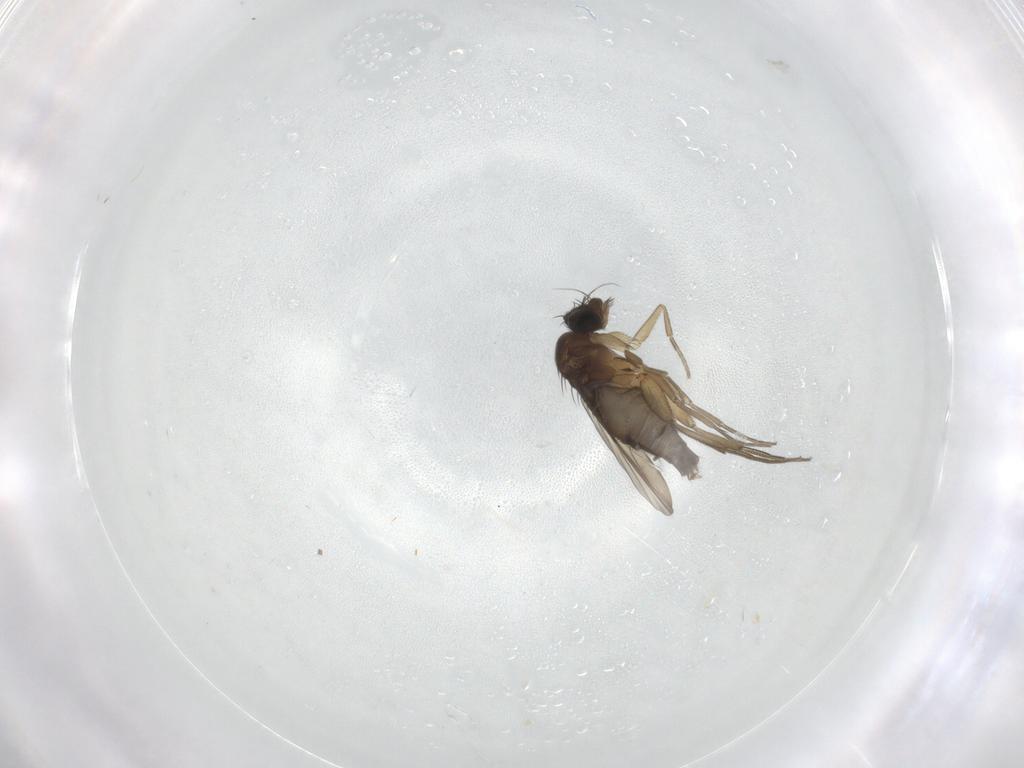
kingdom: Animalia
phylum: Arthropoda
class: Insecta
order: Diptera
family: Phoridae
